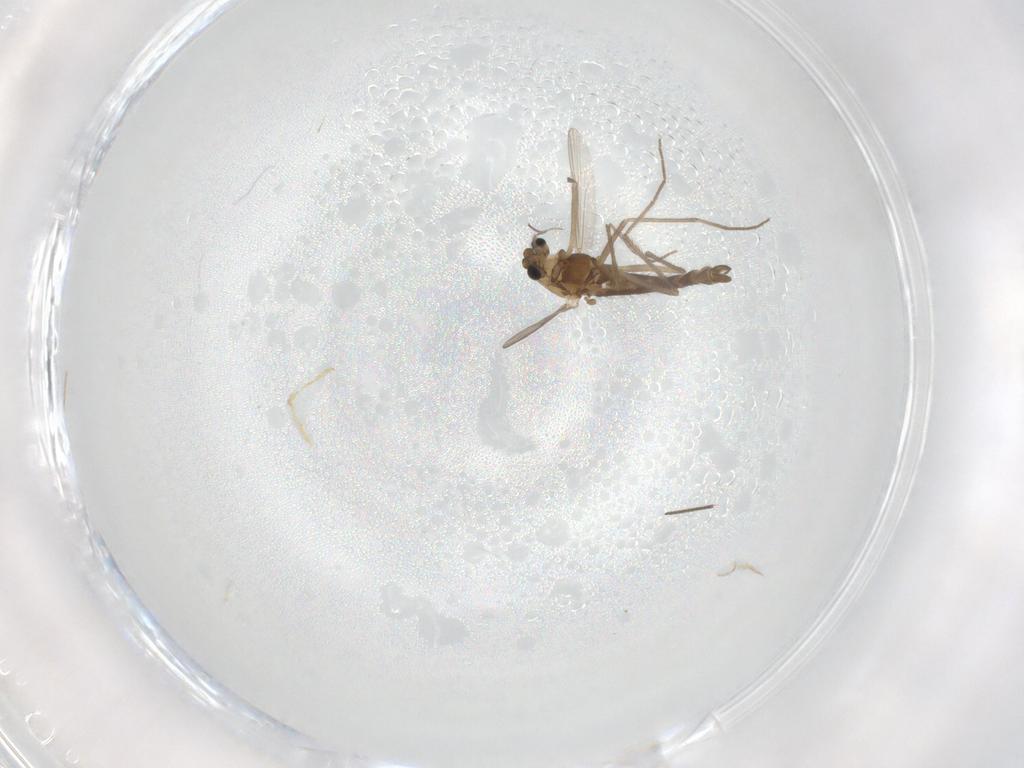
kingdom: Animalia
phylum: Arthropoda
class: Insecta
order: Diptera
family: Chironomidae
